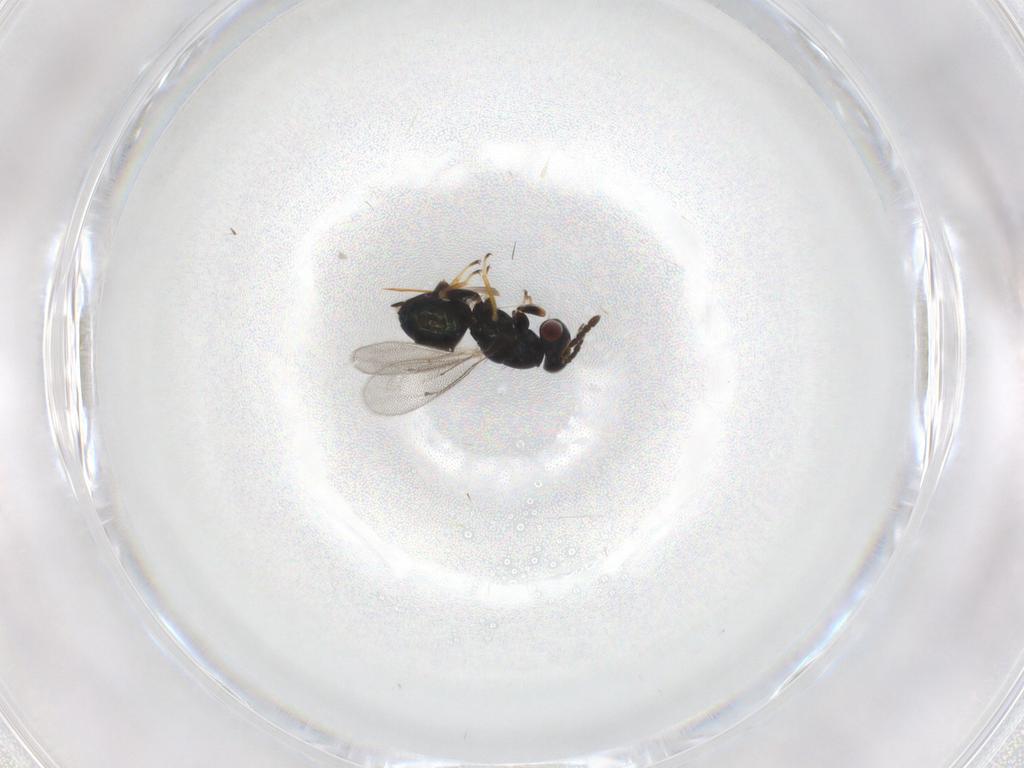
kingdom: Animalia
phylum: Arthropoda
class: Insecta
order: Hymenoptera
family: Eulophidae
